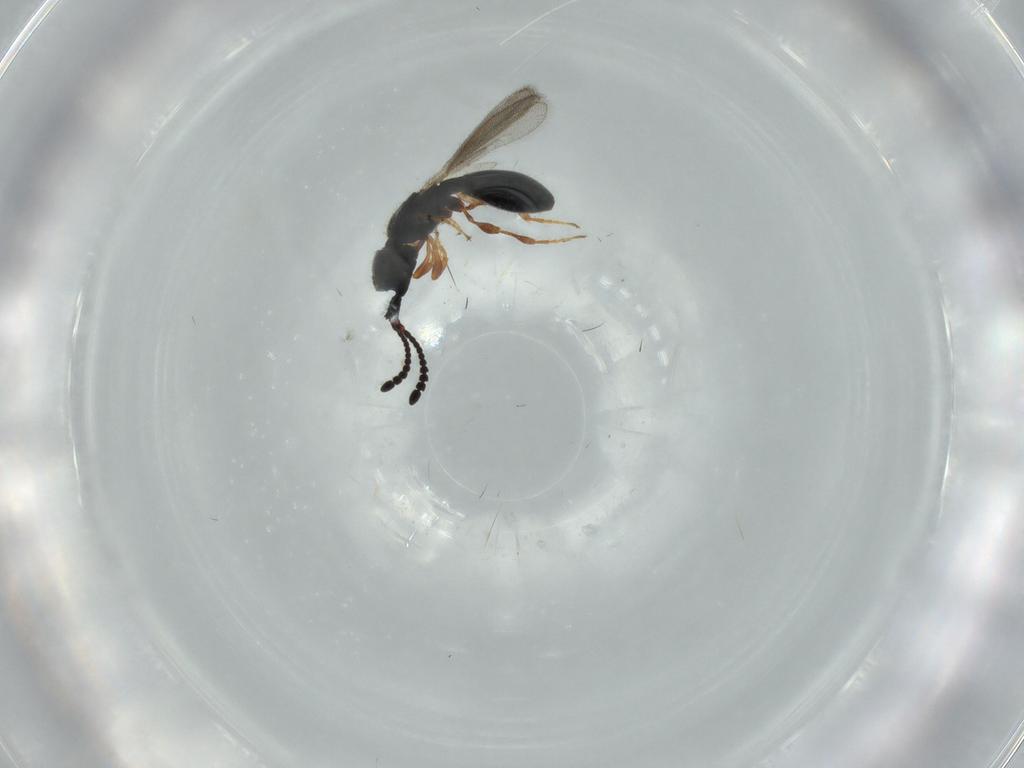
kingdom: Animalia
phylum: Arthropoda
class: Insecta
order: Hymenoptera
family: Diapriidae
